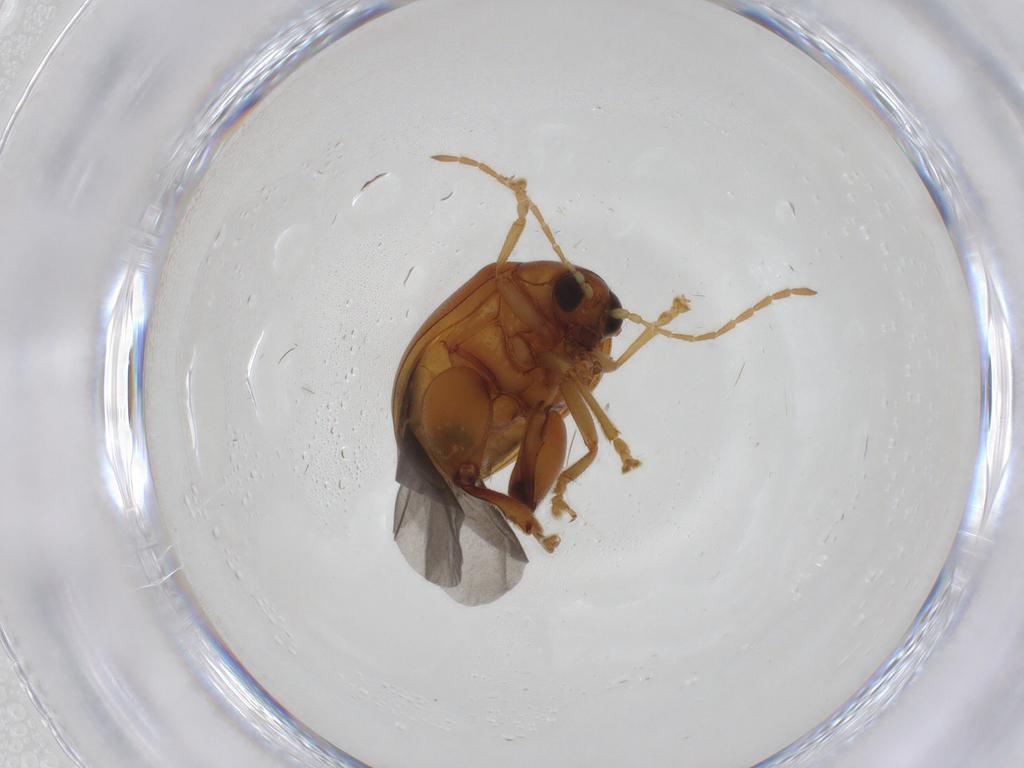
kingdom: Animalia
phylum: Arthropoda
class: Insecta
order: Coleoptera
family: Chrysomelidae
